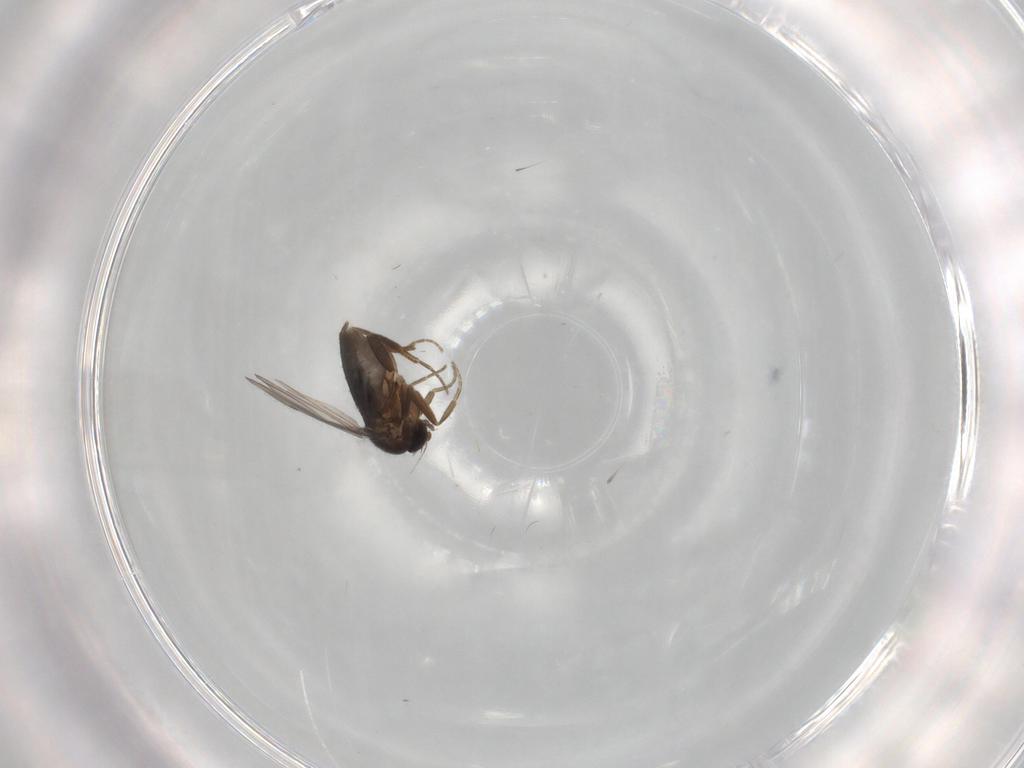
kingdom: Animalia
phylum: Arthropoda
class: Insecta
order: Diptera
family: Phoridae
